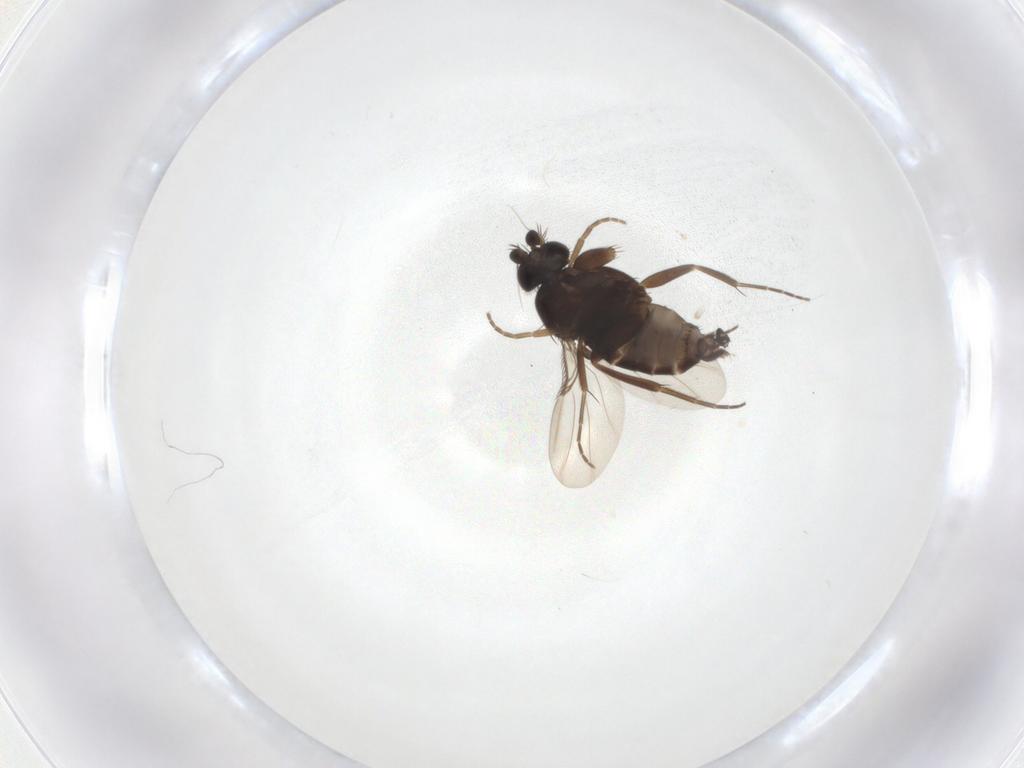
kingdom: Animalia
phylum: Arthropoda
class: Insecta
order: Diptera
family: Phoridae
